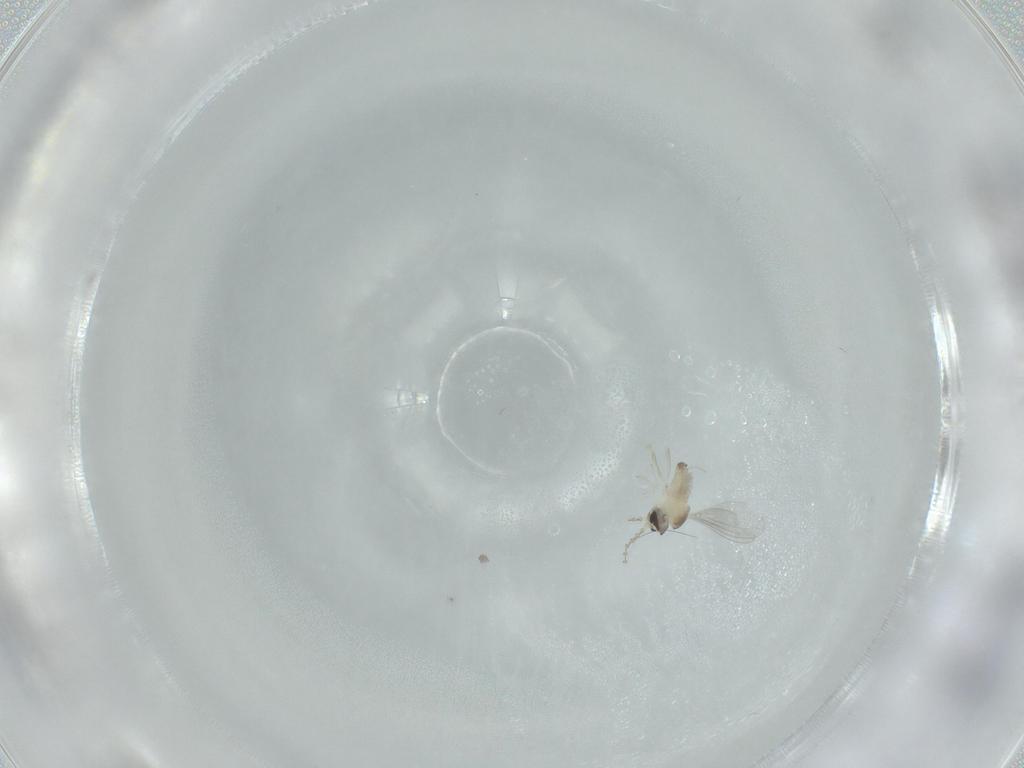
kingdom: Animalia
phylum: Arthropoda
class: Insecta
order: Diptera
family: Cecidomyiidae
